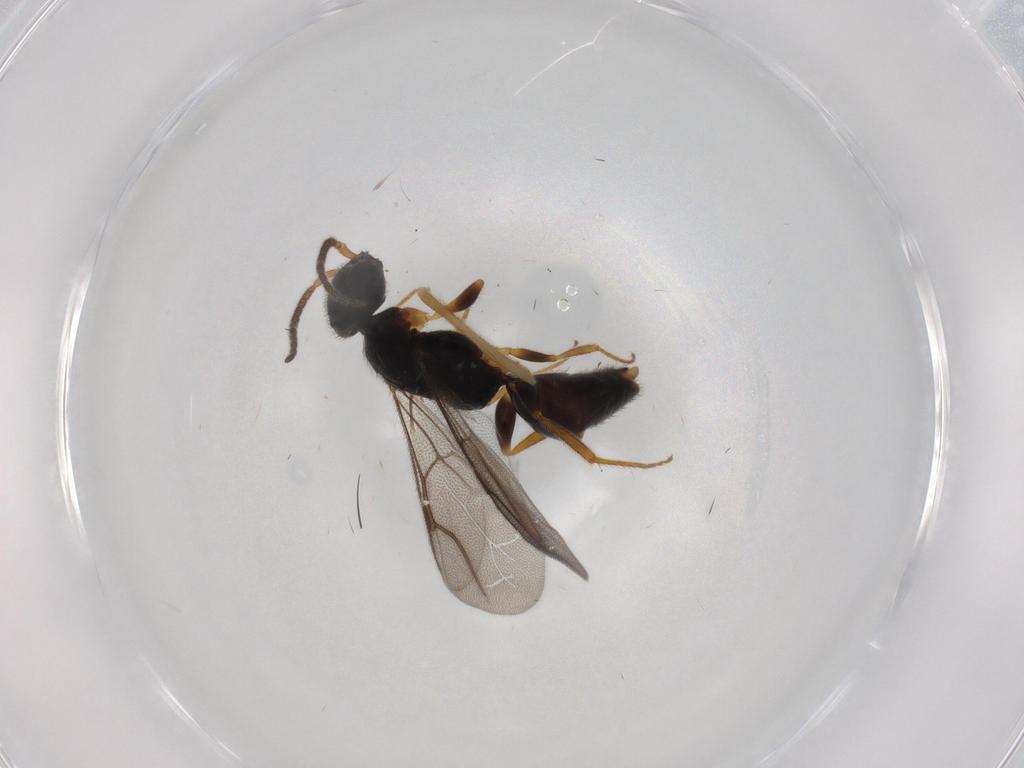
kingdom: Animalia
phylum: Arthropoda
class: Insecta
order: Hymenoptera
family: Bethylidae
